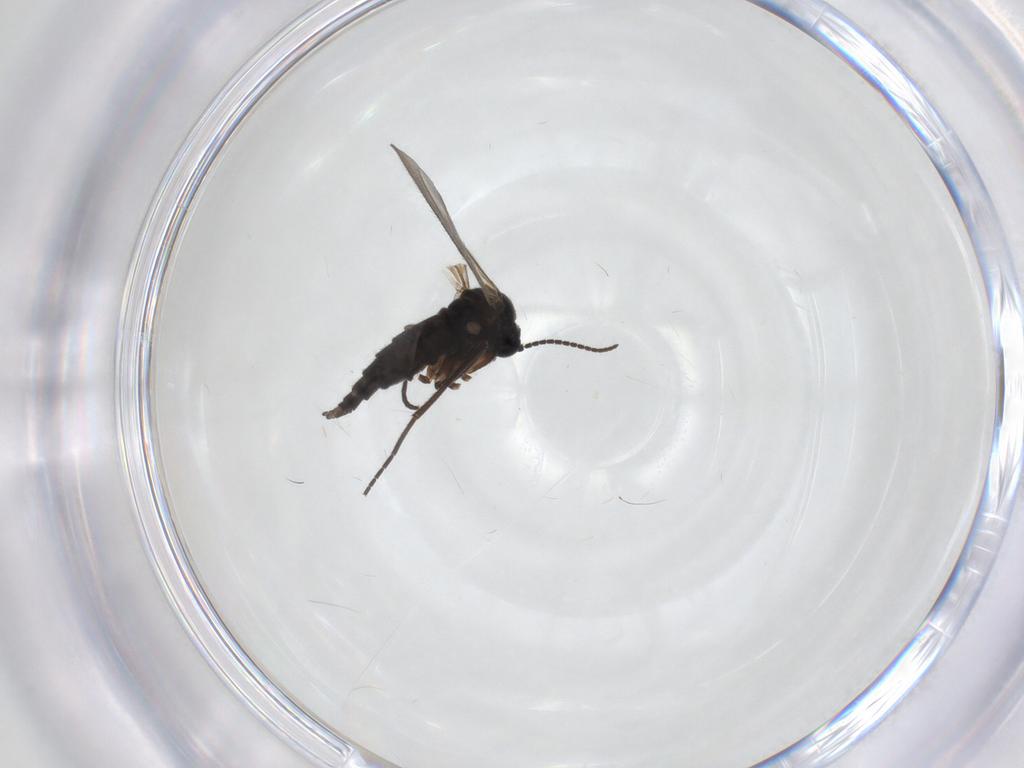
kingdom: Animalia
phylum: Arthropoda
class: Insecta
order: Diptera
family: Sciaridae
